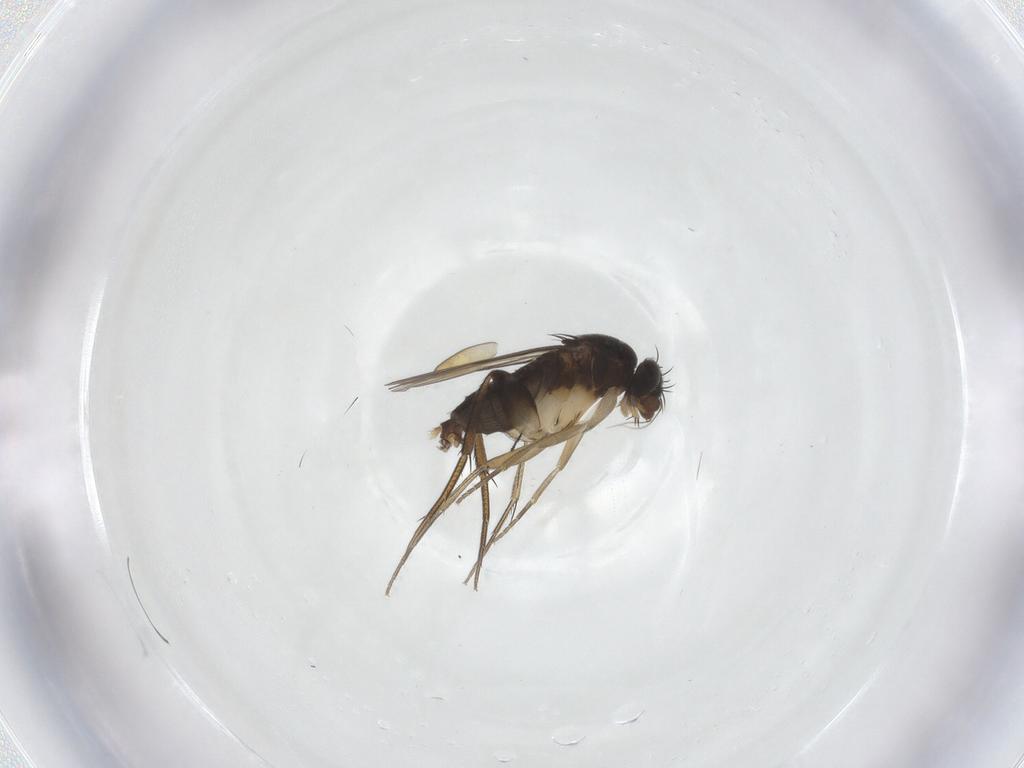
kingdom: Animalia
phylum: Arthropoda
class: Insecta
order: Diptera
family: Phoridae
